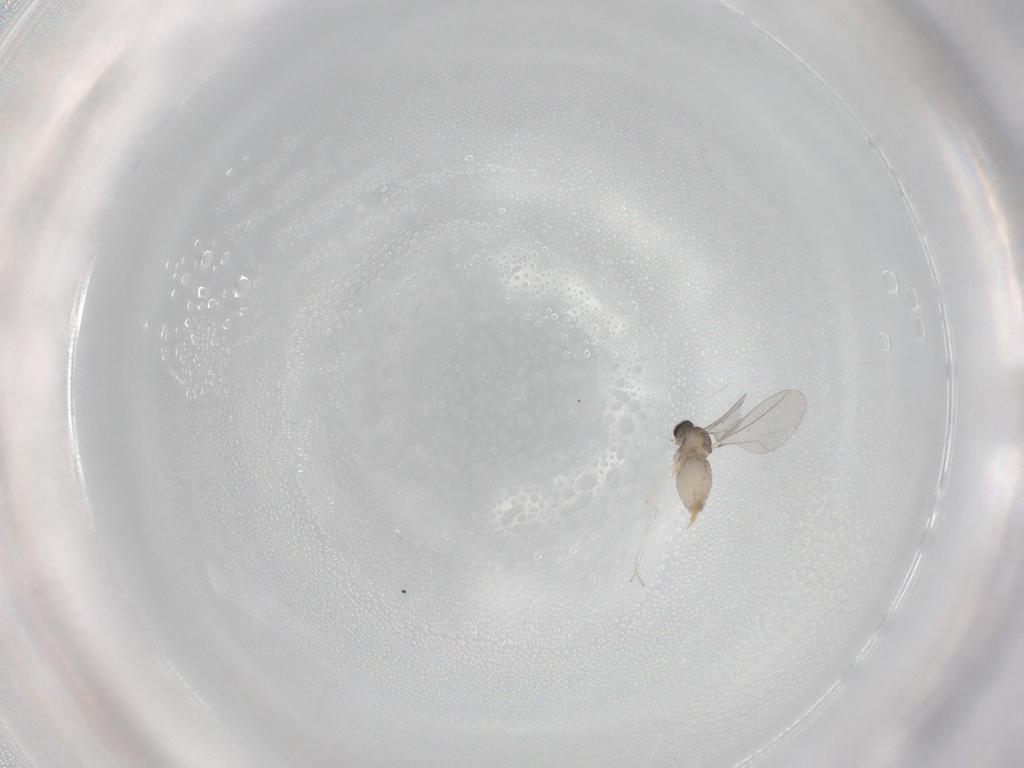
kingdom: Animalia
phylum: Arthropoda
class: Insecta
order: Diptera
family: Cecidomyiidae
